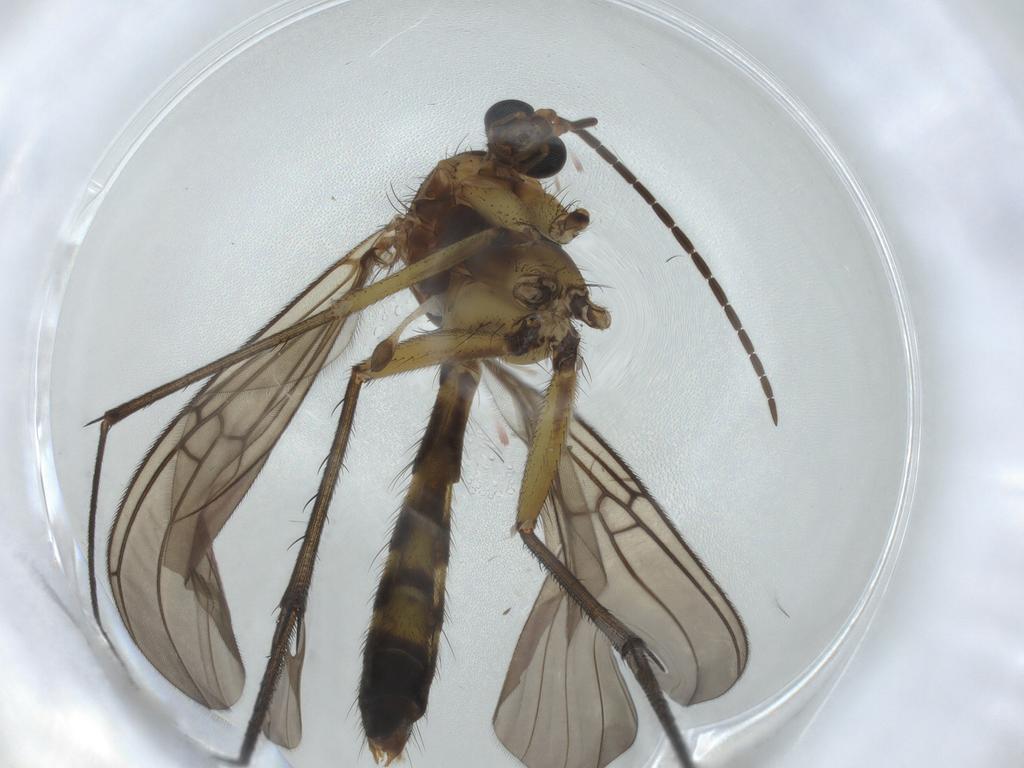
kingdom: Animalia
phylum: Arthropoda
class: Insecta
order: Diptera
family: Mycetophilidae
